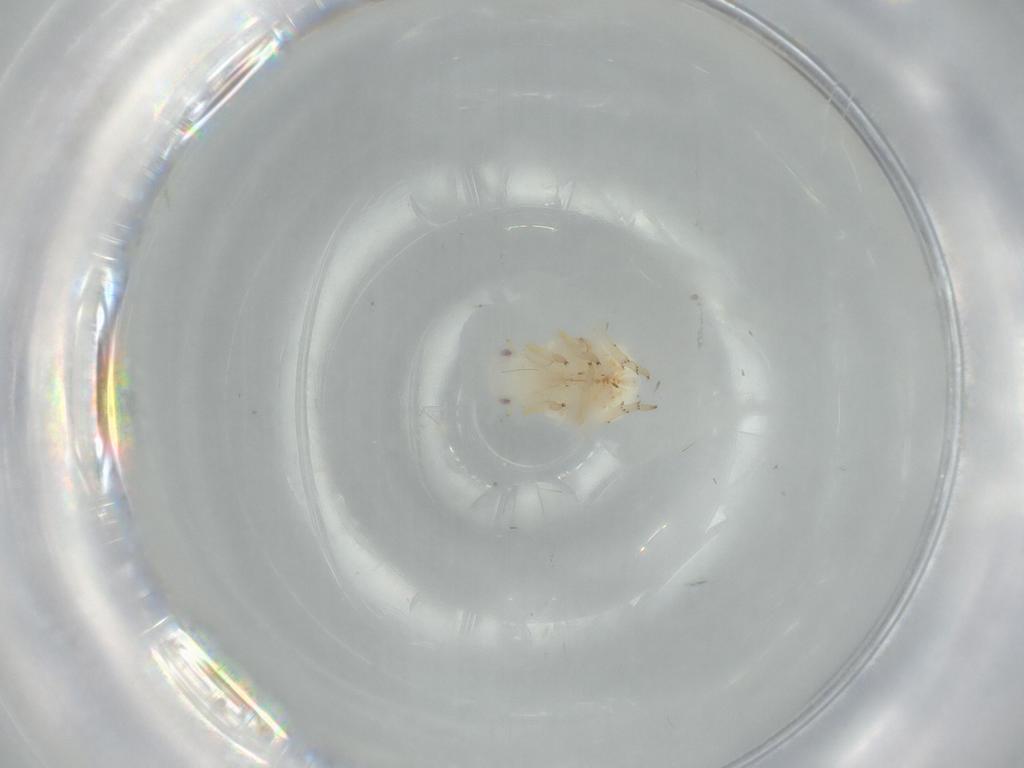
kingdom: Animalia
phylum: Arthropoda
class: Insecta
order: Hemiptera
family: Flatidae
